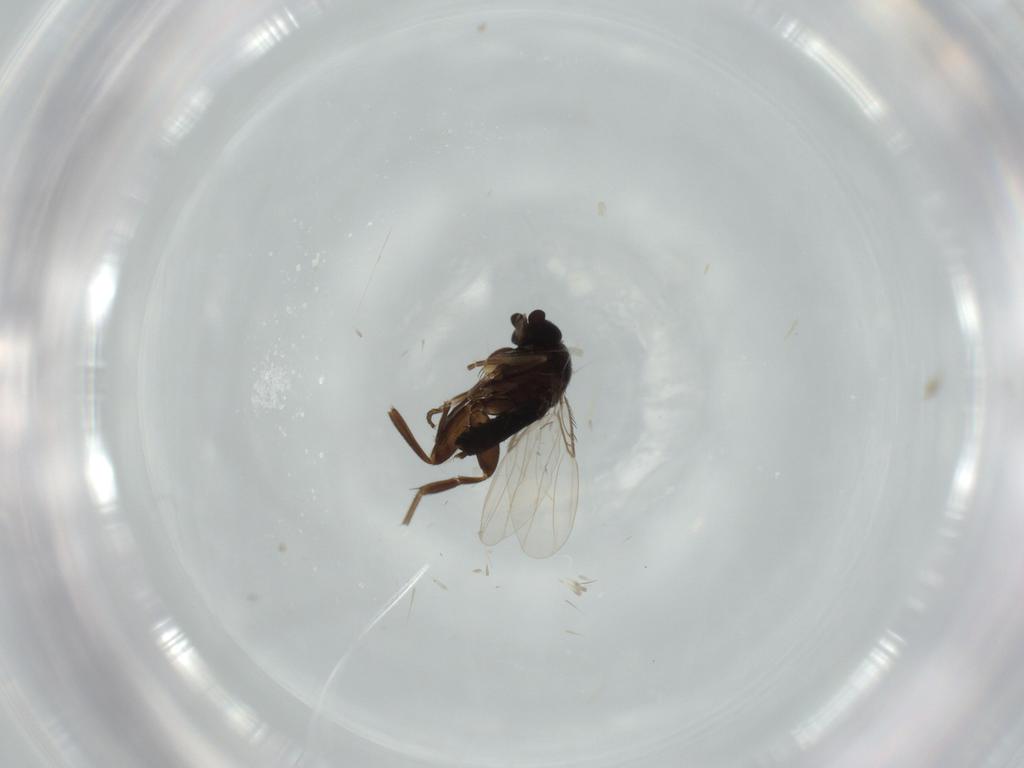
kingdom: Animalia
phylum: Arthropoda
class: Insecta
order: Diptera
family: Phoridae
